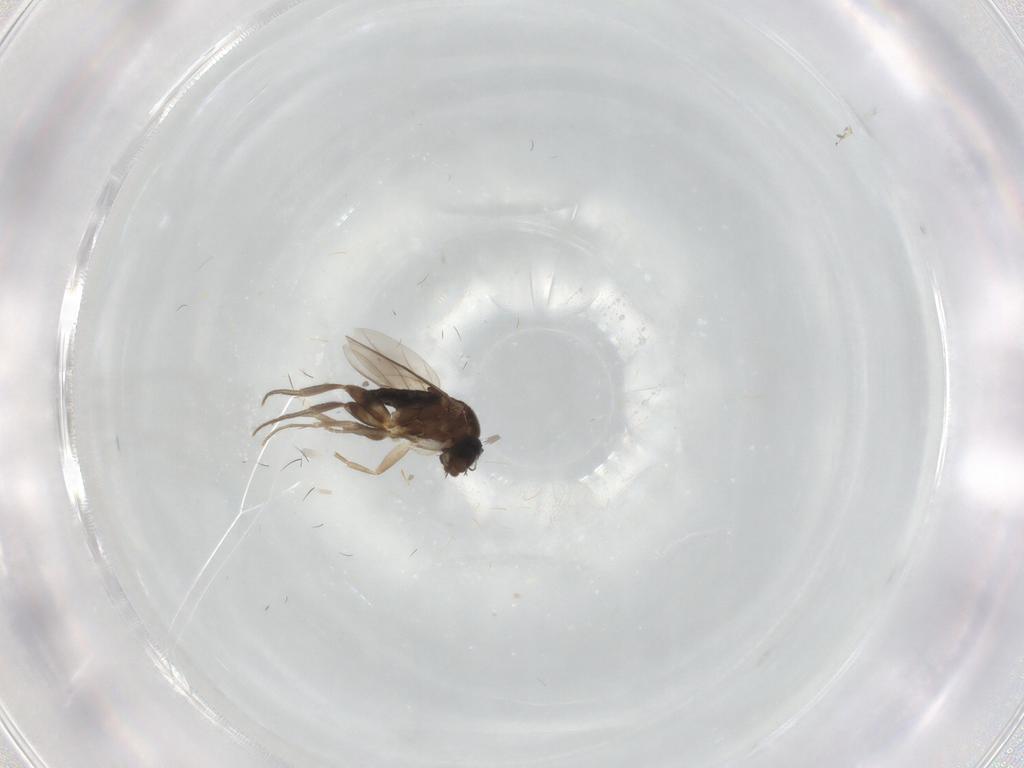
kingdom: Animalia
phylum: Arthropoda
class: Insecta
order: Diptera
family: Phoridae
